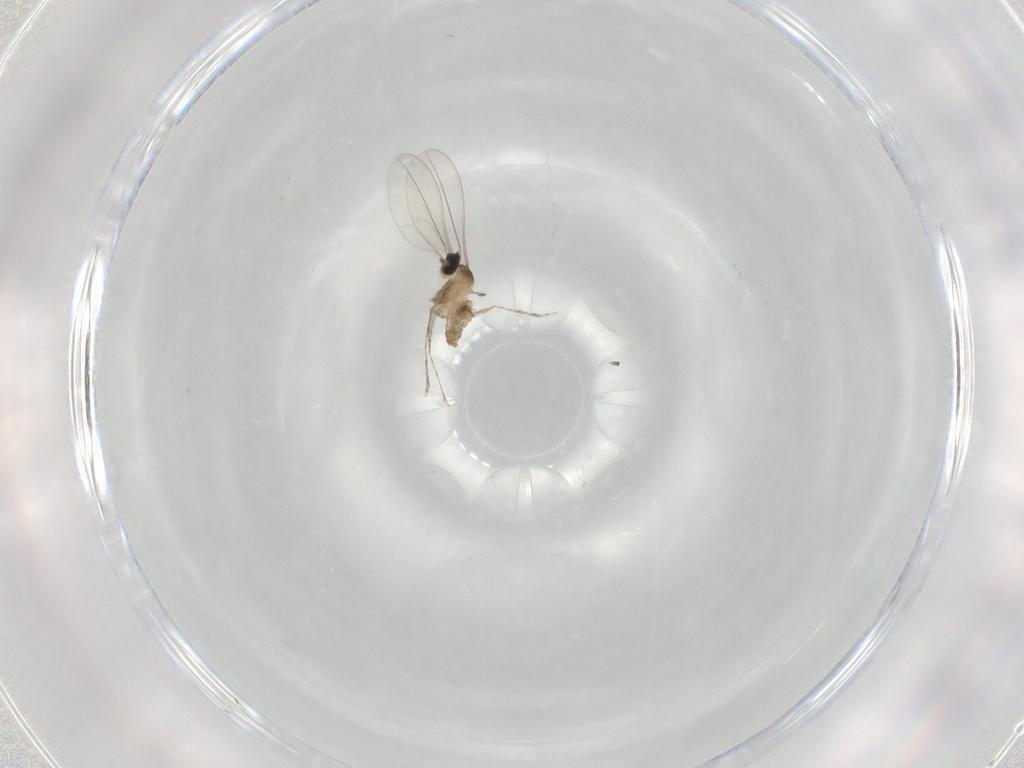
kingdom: Animalia
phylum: Arthropoda
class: Insecta
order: Diptera
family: Cecidomyiidae
